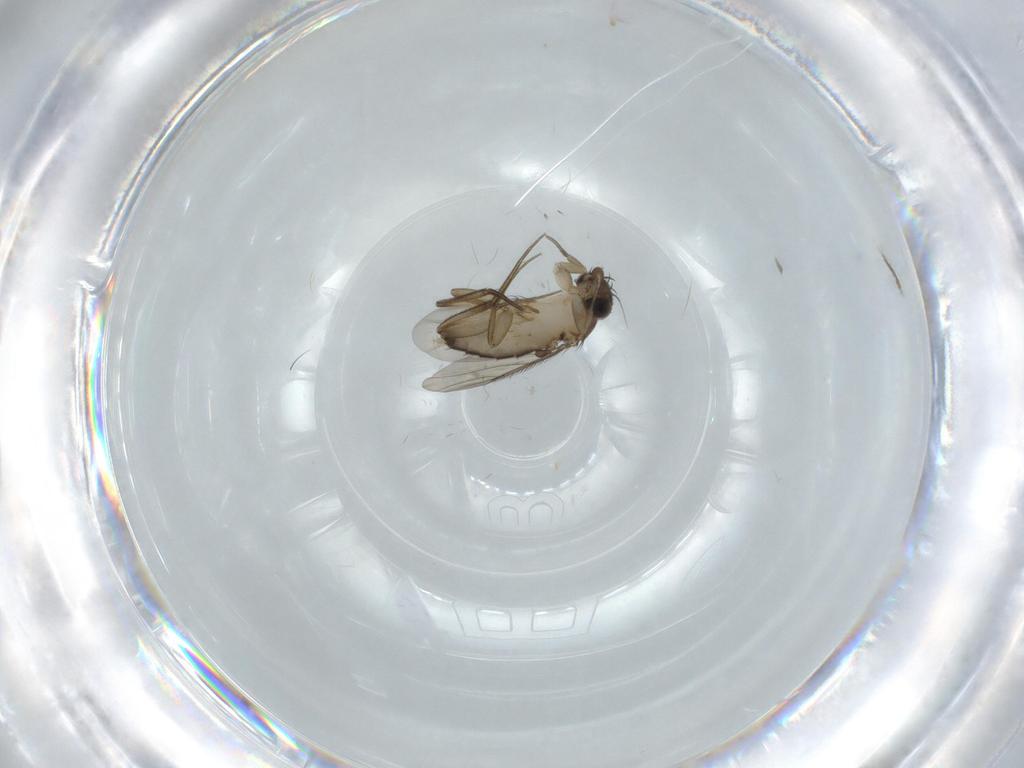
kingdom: Animalia
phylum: Arthropoda
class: Insecta
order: Diptera
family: Phoridae
